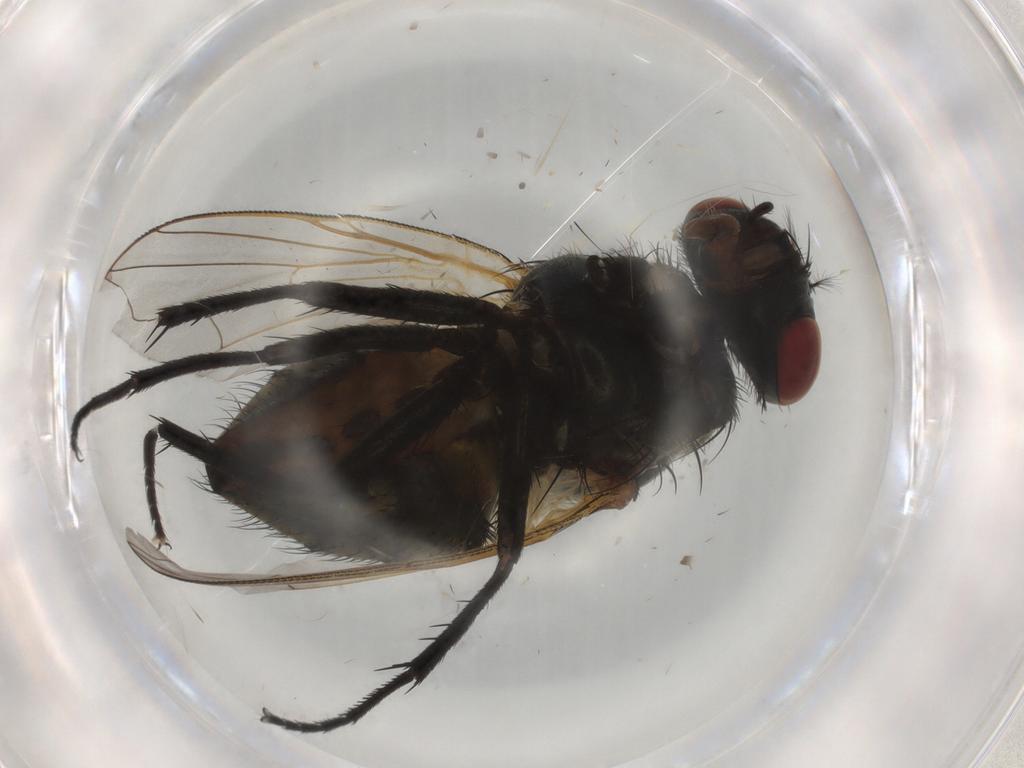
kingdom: Animalia
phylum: Arthropoda
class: Insecta
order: Diptera
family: Muscidae
